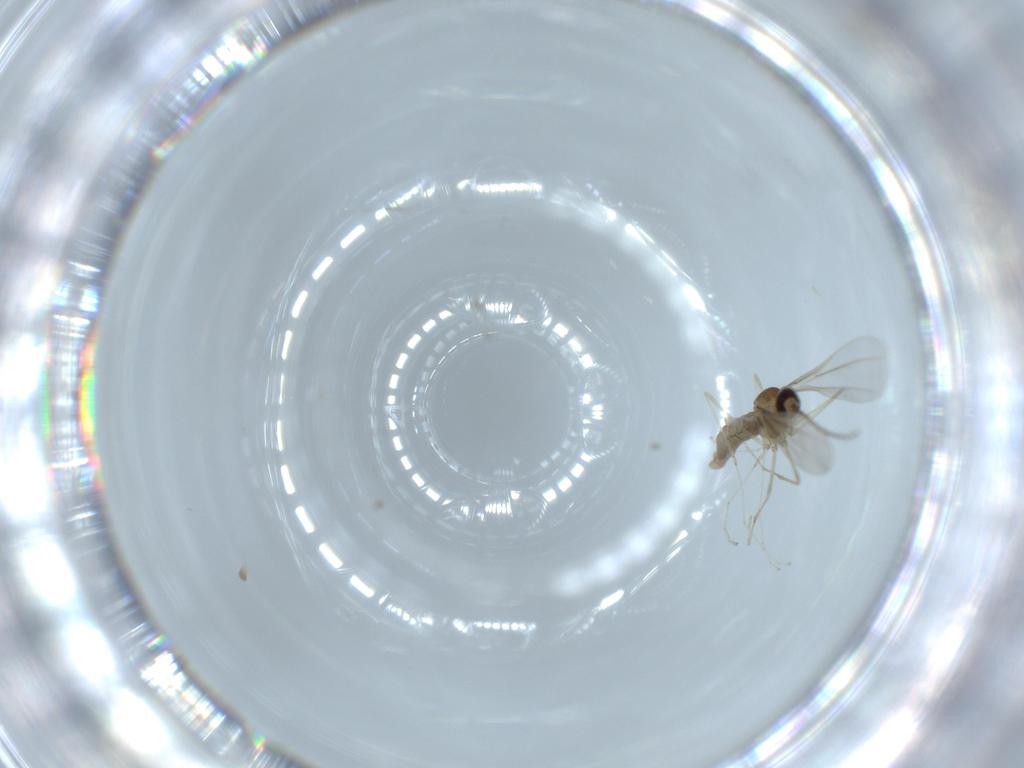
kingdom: Animalia
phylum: Arthropoda
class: Insecta
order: Diptera
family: Cecidomyiidae
